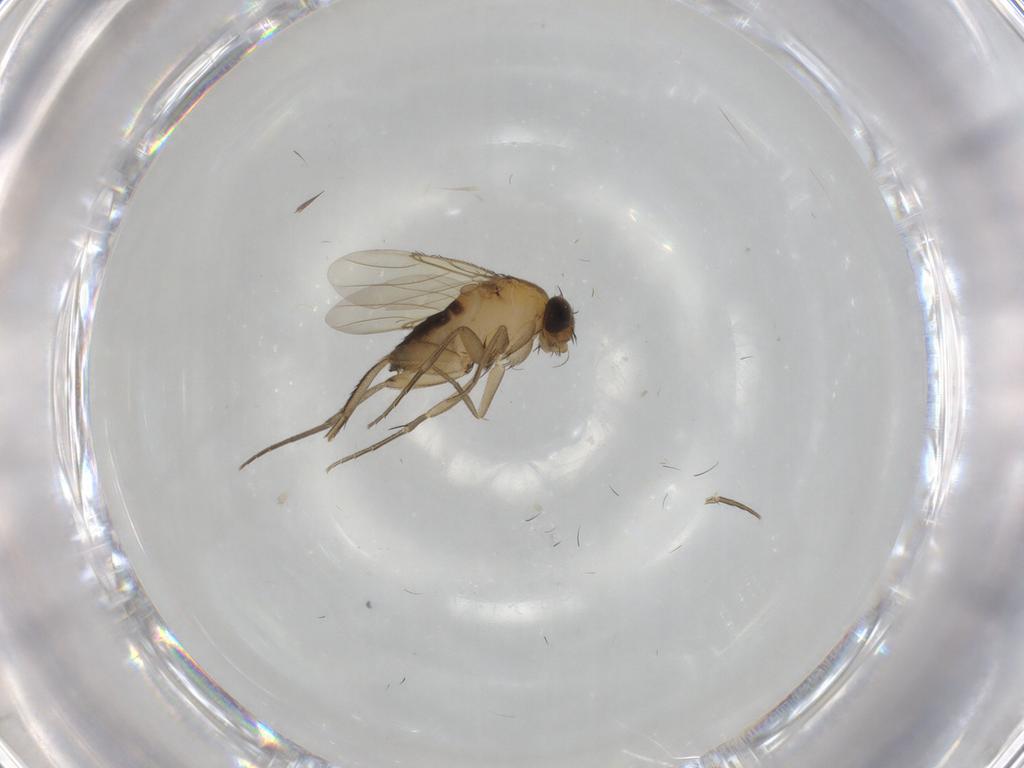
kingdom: Animalia
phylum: Arthropoda
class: Insecta
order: Diptera
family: Phoridae
